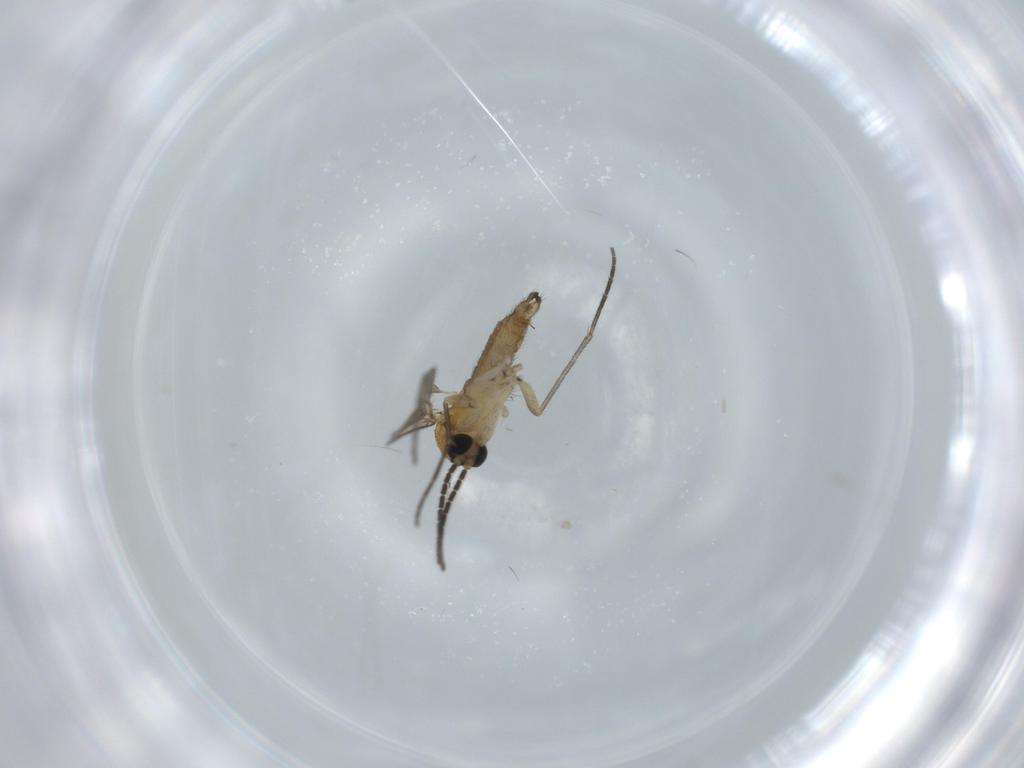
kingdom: Animalia
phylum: Arthropoda
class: Insecta
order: Diptera
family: Sciaridae
